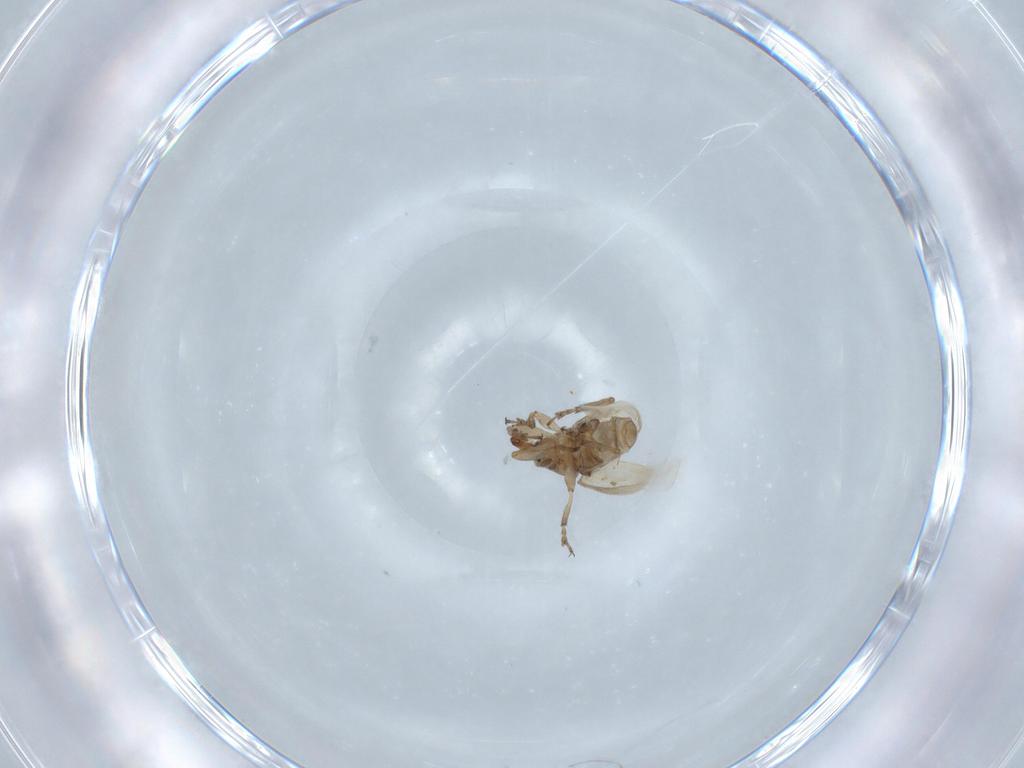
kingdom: Animalia
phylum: Arthropoda
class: Insecta
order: Coleoptera
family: Brentidae
